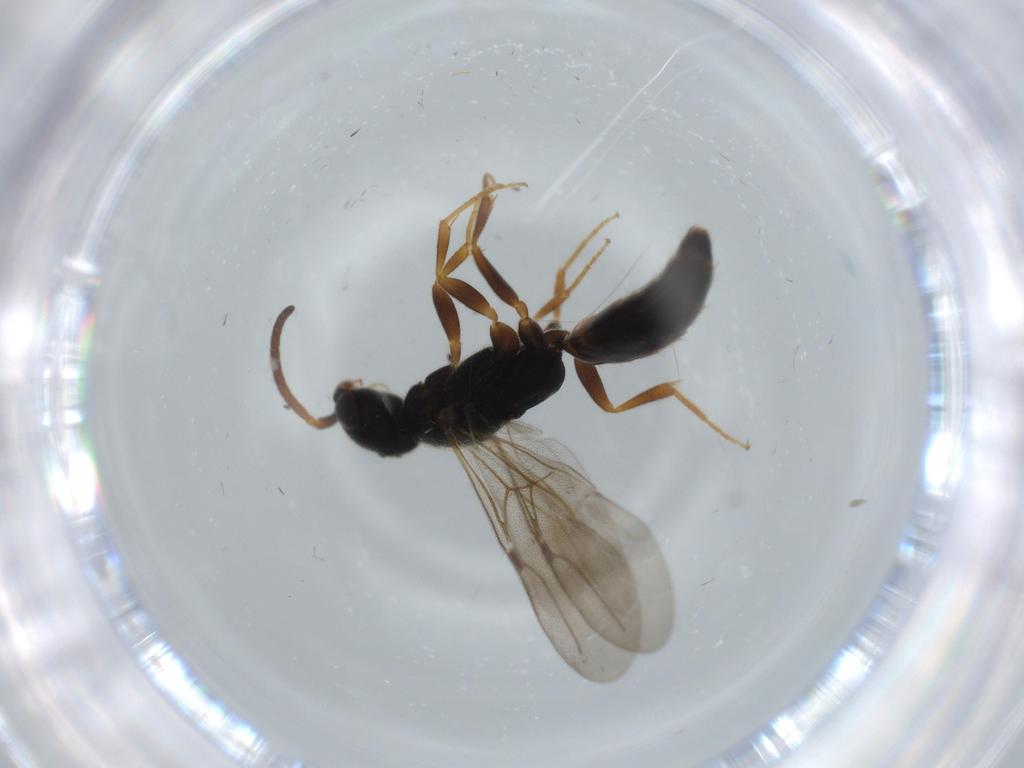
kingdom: Animalia
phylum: Arthropoda
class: Insecta
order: Hymenoptera
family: Bethylidae
